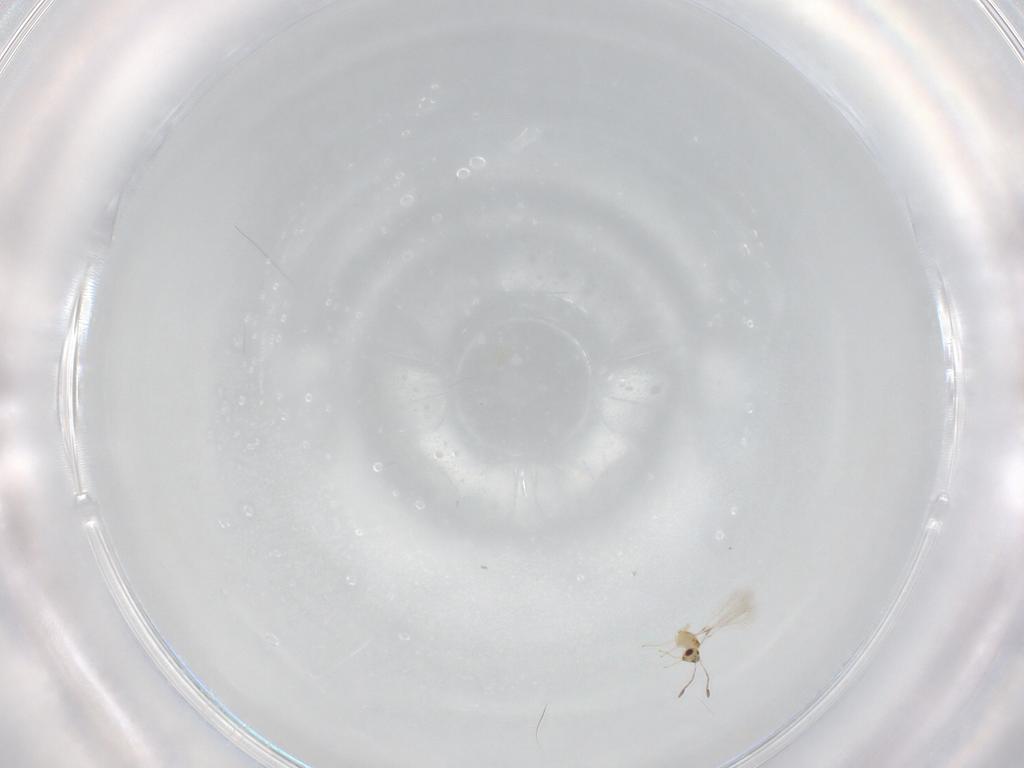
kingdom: Animalia
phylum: Arthropoda
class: Insecta
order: Hymenoptera
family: Mymaridae
